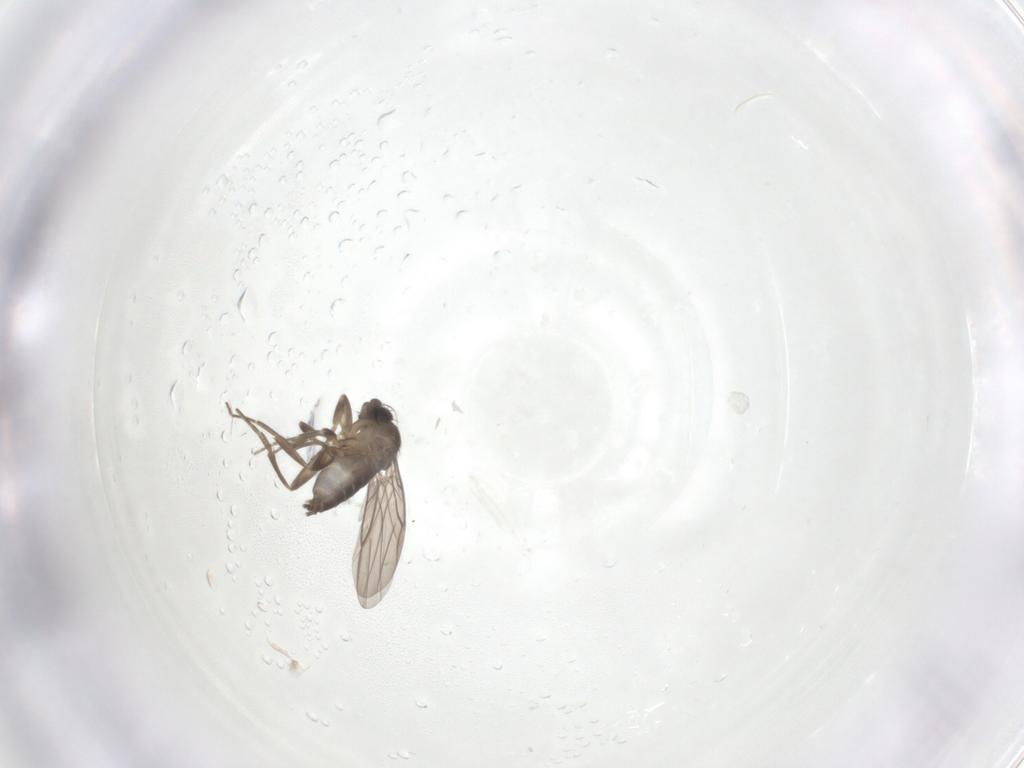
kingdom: Animalia
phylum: Arthropoda
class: Insecta
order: Diptera
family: Phoridae
